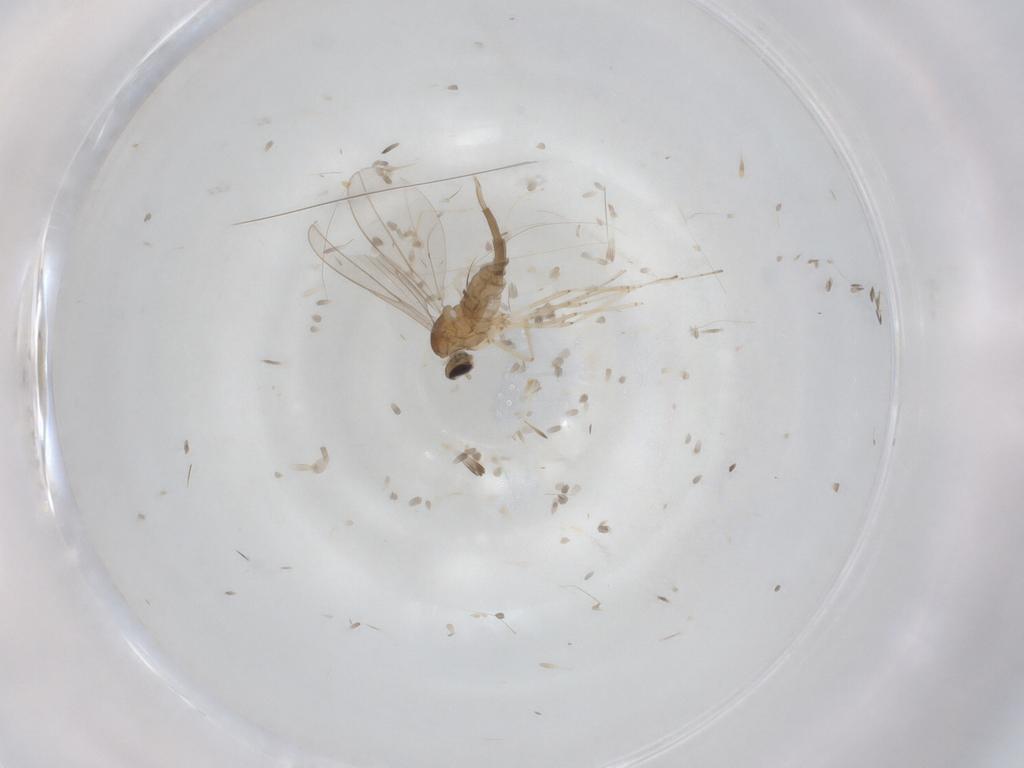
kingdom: Animalia
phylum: Arthropoda
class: Insecta
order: Diptera
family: Cecidomyiidae
